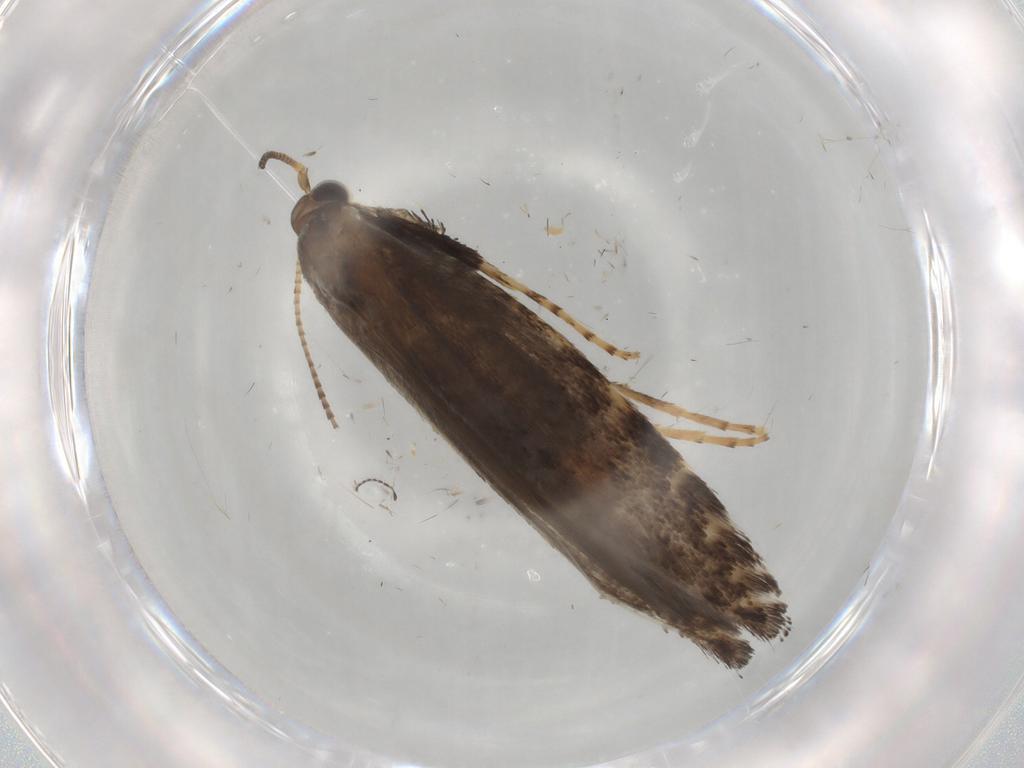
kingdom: Animalia
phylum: Arthropoda
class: Insecta
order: Lepidoptera
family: Gracillariidae
